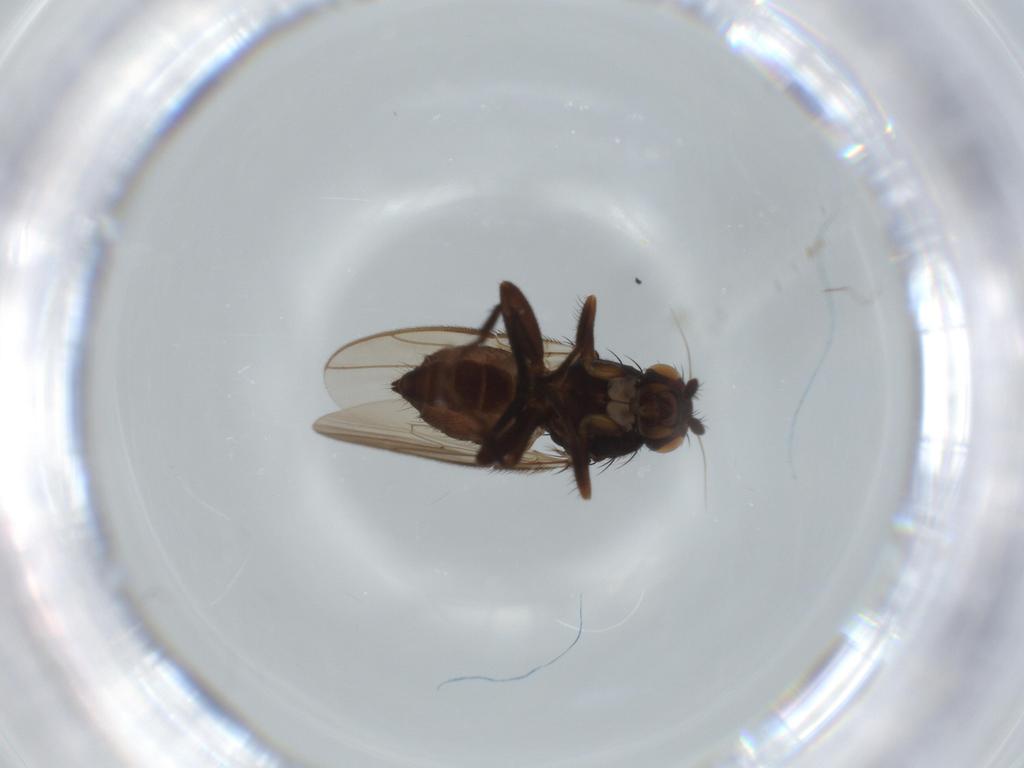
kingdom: Animalia
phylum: Arthropoda
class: Insecta
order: Diptera
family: Sphaeroceridae
